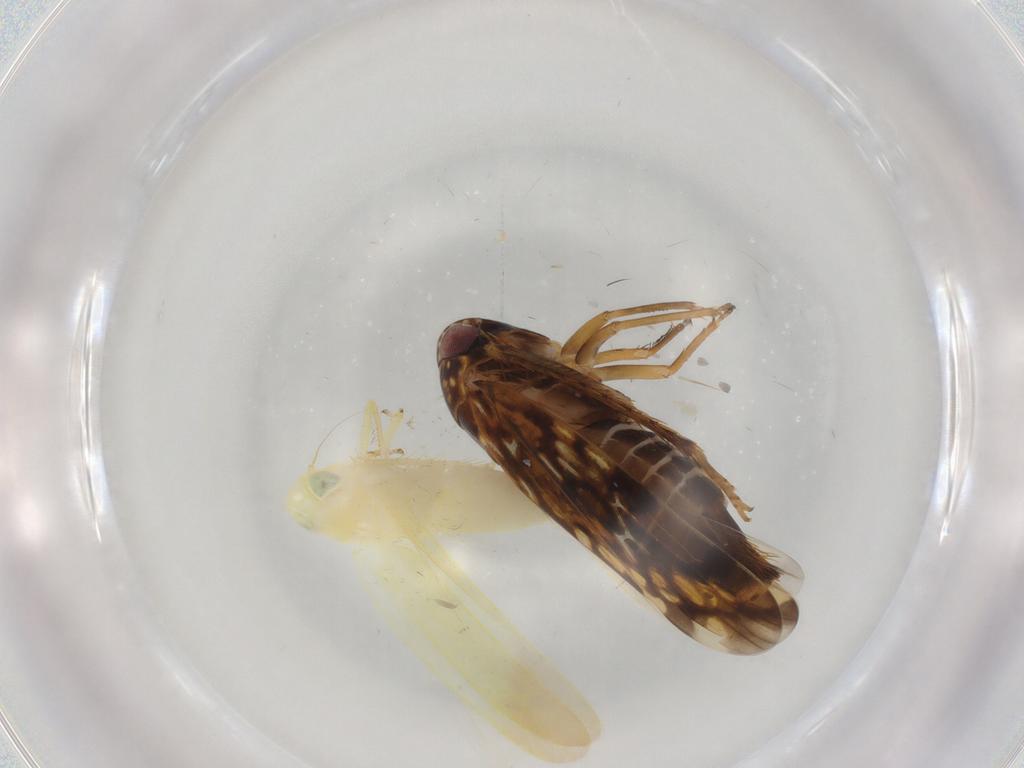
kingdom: Animalia
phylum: Arthropoda
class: Insecta
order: Hemiptera
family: Cicadellidae
